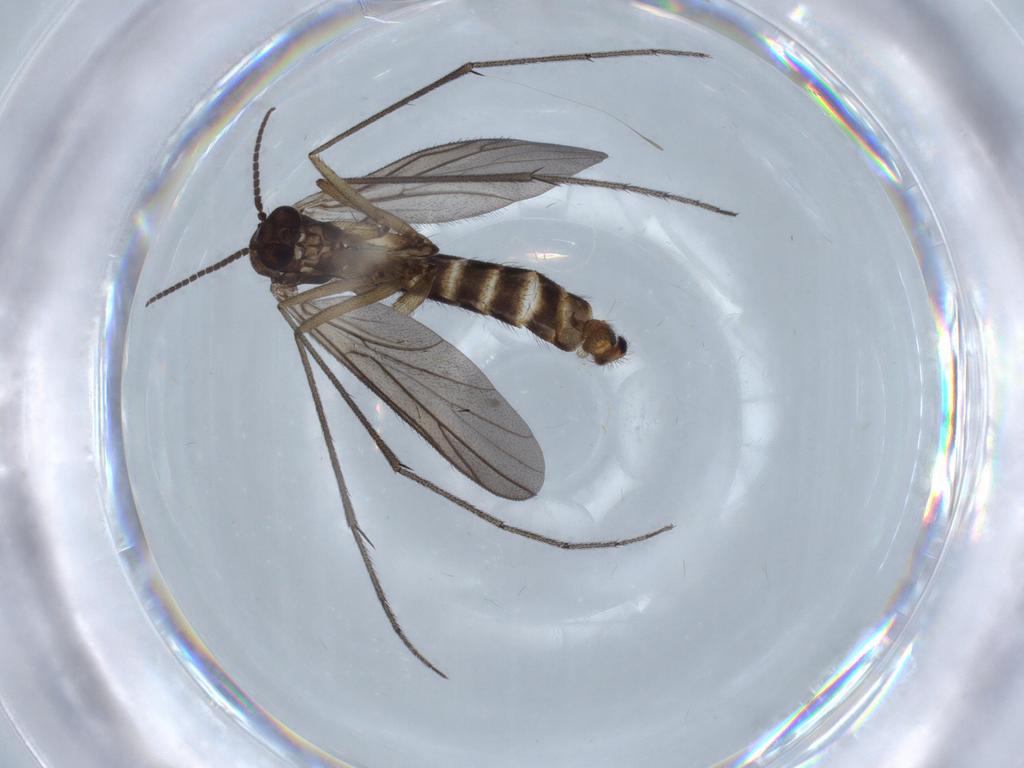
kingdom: Animalia
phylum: Arthropoda
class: Insecta
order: Diptera
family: Ditomyiidae
